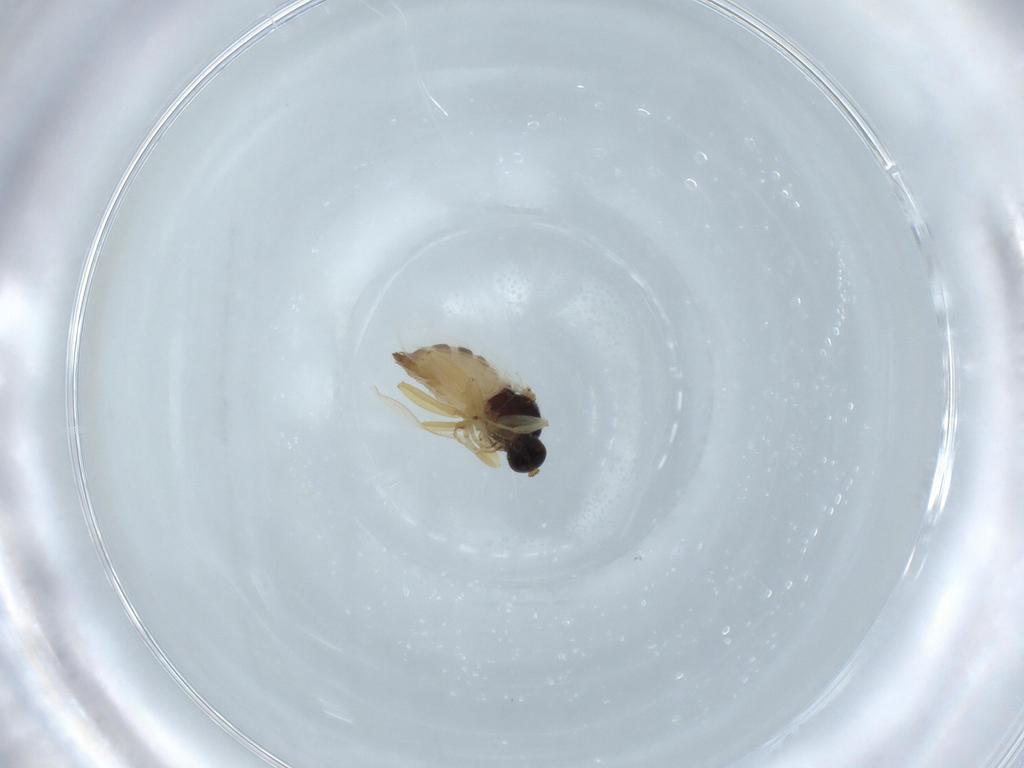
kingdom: Animalia
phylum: Arthropoda
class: Insecta
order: Diptera
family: Hybotidae
